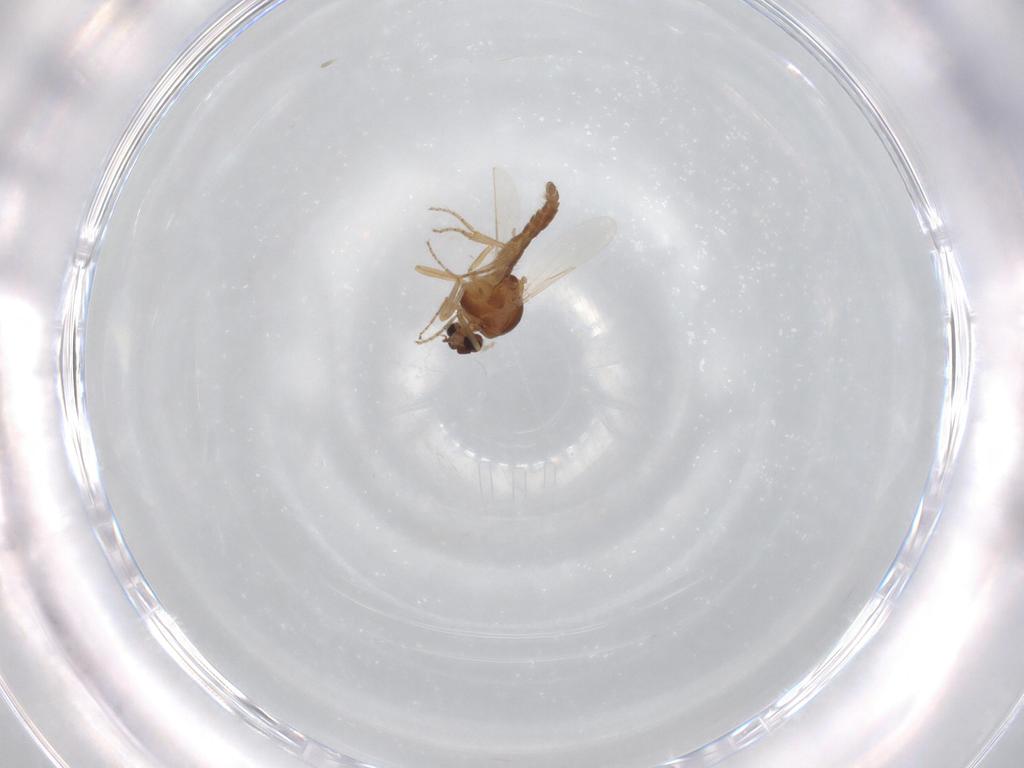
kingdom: Animalia
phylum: Arthropoda
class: Insecta
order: Diptera
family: Ceratopogonidae
